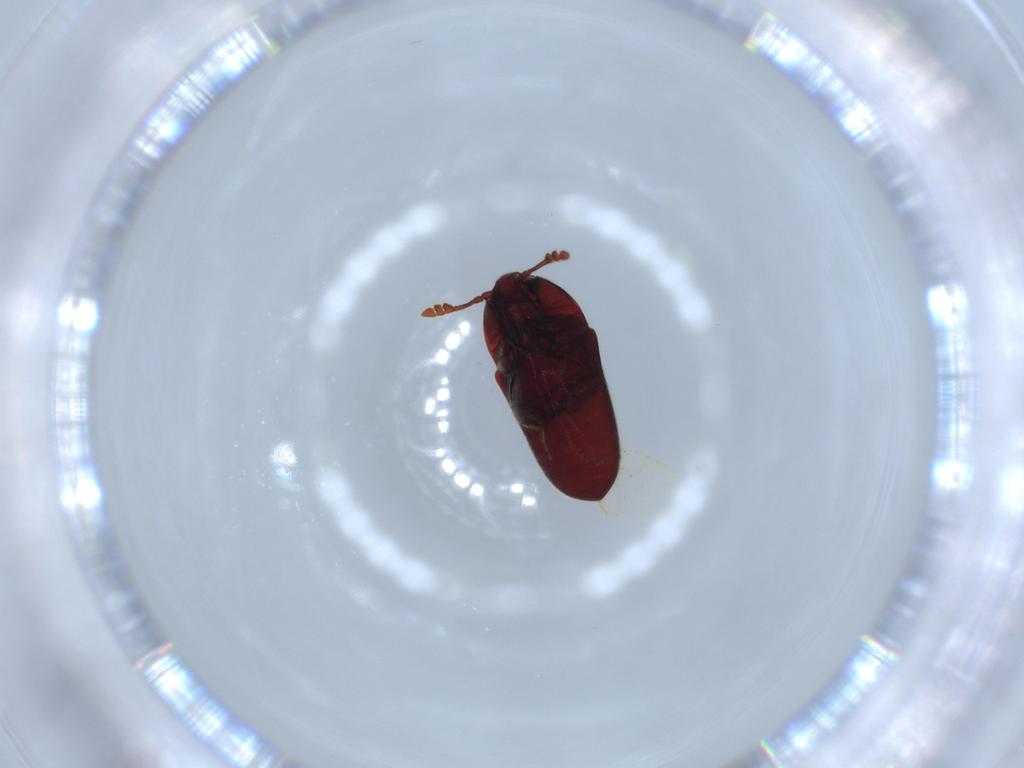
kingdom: Animalia
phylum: Arthropoda
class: Insecta
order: Coleoptera
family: Throscidae
